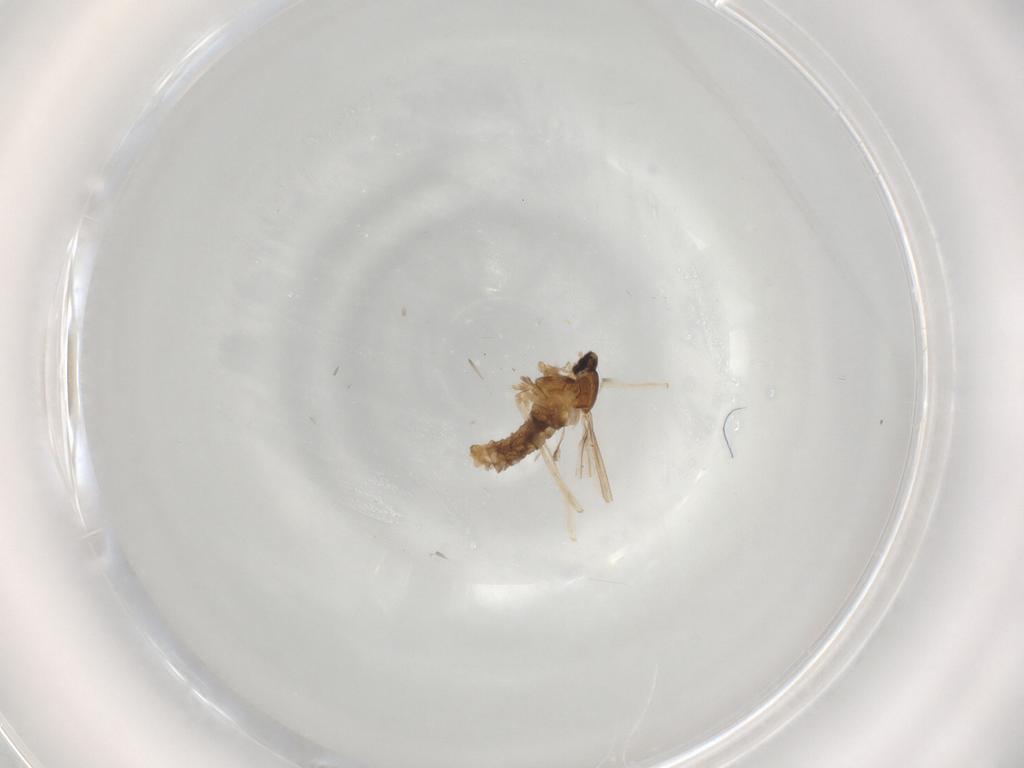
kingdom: Animalia
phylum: Arthropoda
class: Insecta
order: Diptera
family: Cecidomyiidae
